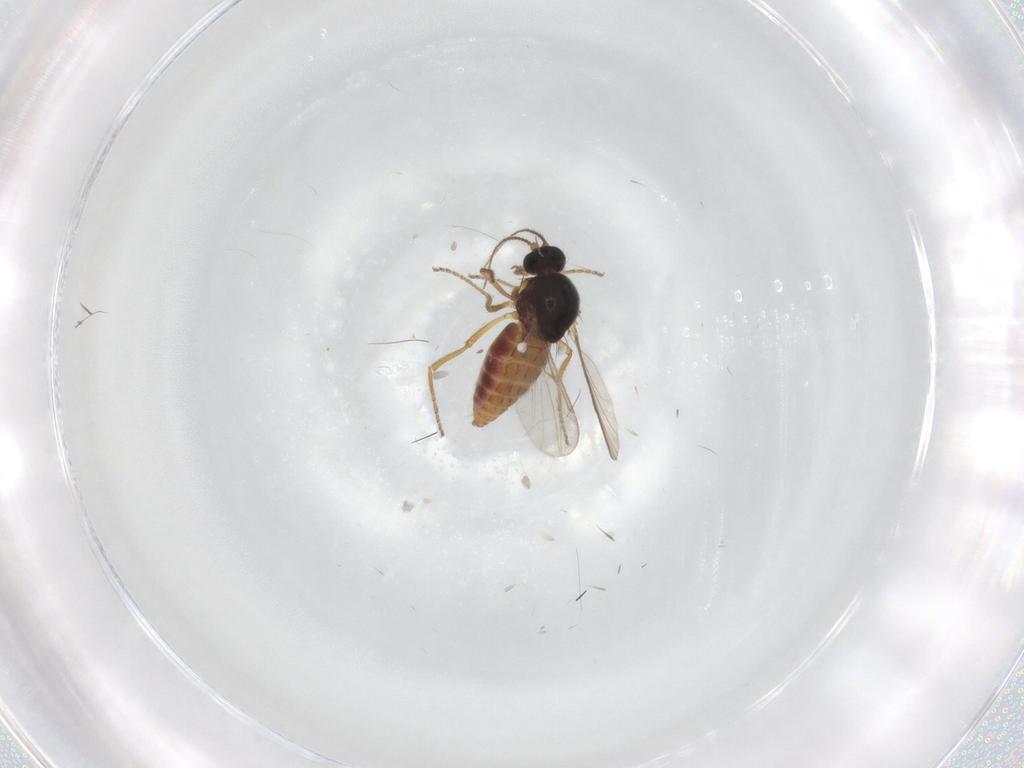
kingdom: Animalia
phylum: Arthropoda
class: Insecta
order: Diptera
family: Ceratopogonidae
